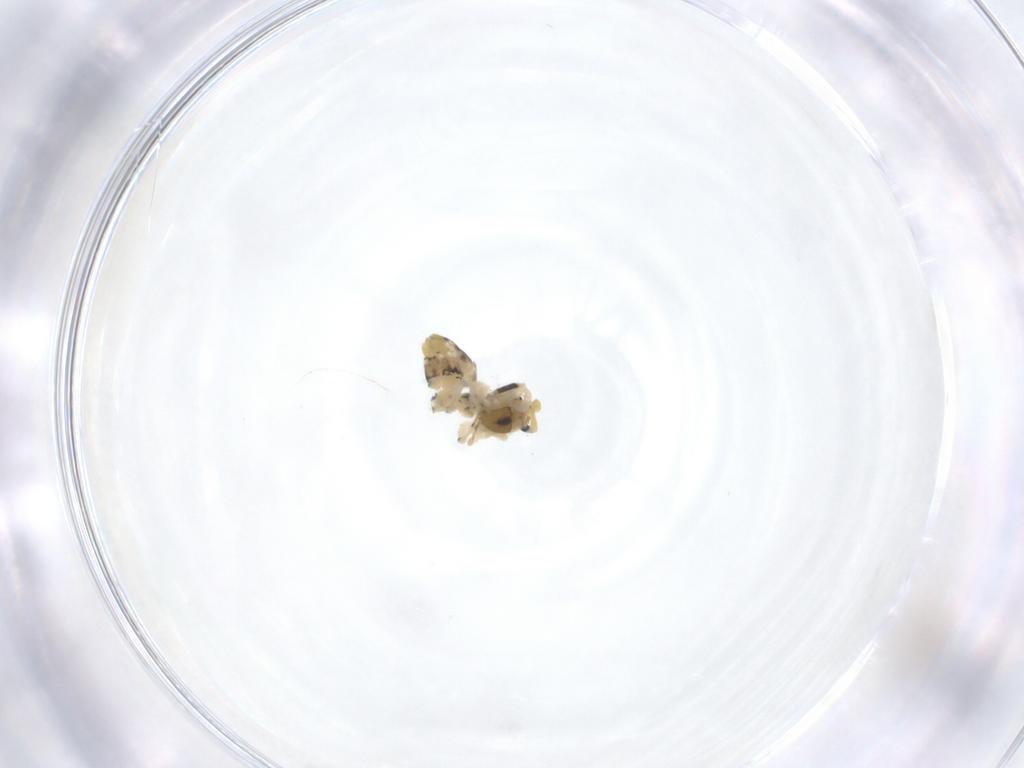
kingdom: Animalia
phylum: Arthropoda
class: Arachnida
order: Araneae
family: Uloboridae
